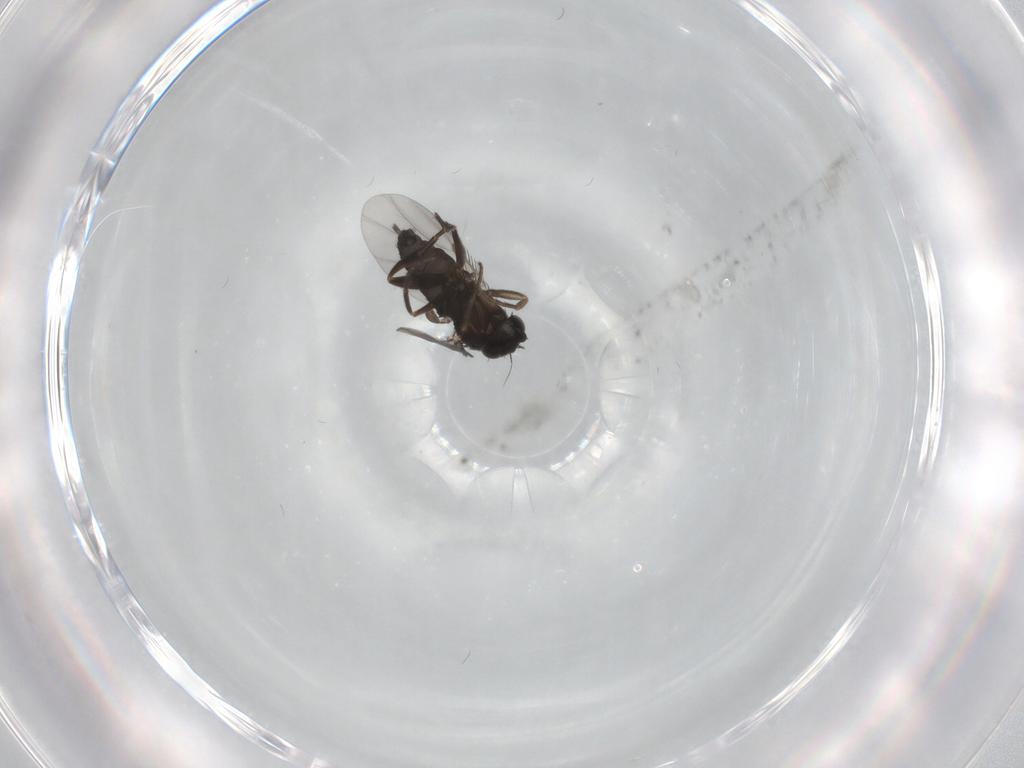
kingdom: Animalia
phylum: Arthropoda
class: Insecta
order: Diptera
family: Phoridae
